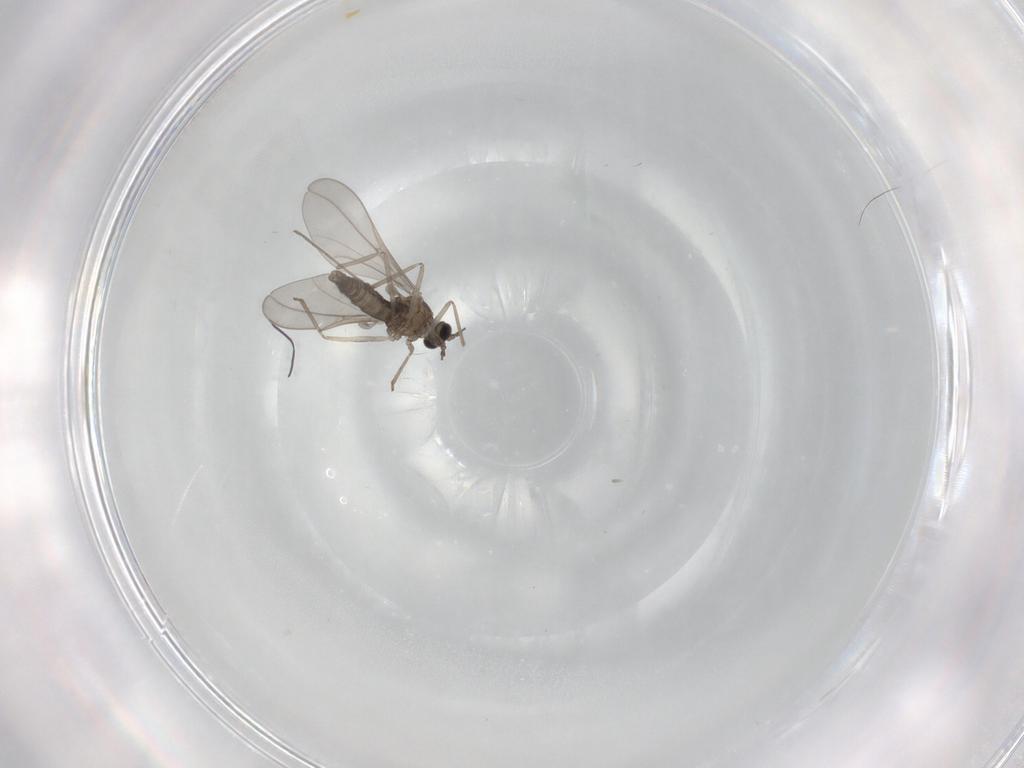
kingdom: Animalia
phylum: Arthropoda
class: Insecta
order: Diptera
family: Cecidomyiidae
